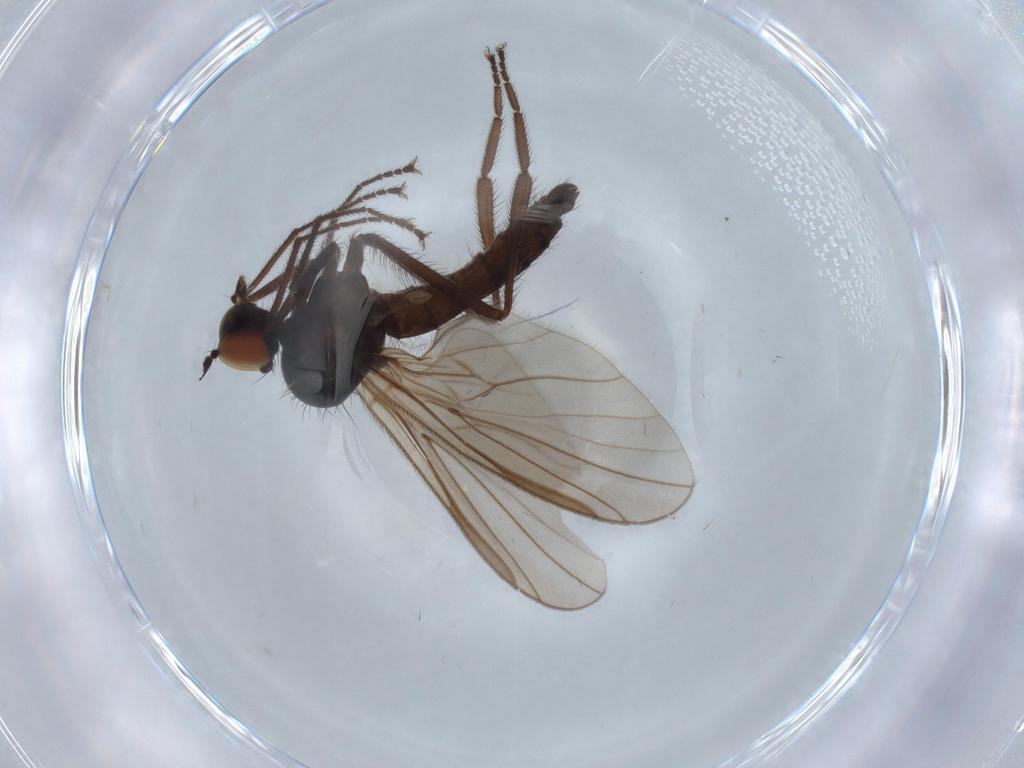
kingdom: Animalia
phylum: Arthropoda
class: Insecta
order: Diptera
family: Hybotidae
